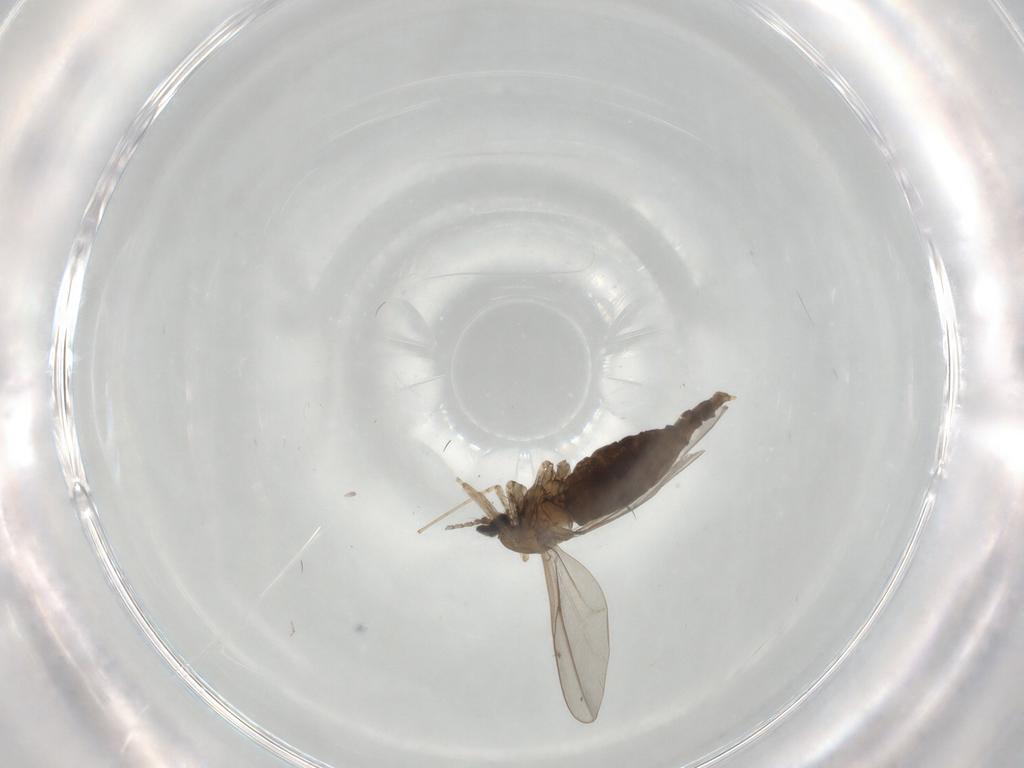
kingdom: Animalia
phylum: Arthropoda
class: Insecta
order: Diptera
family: Cecidomyiidae
